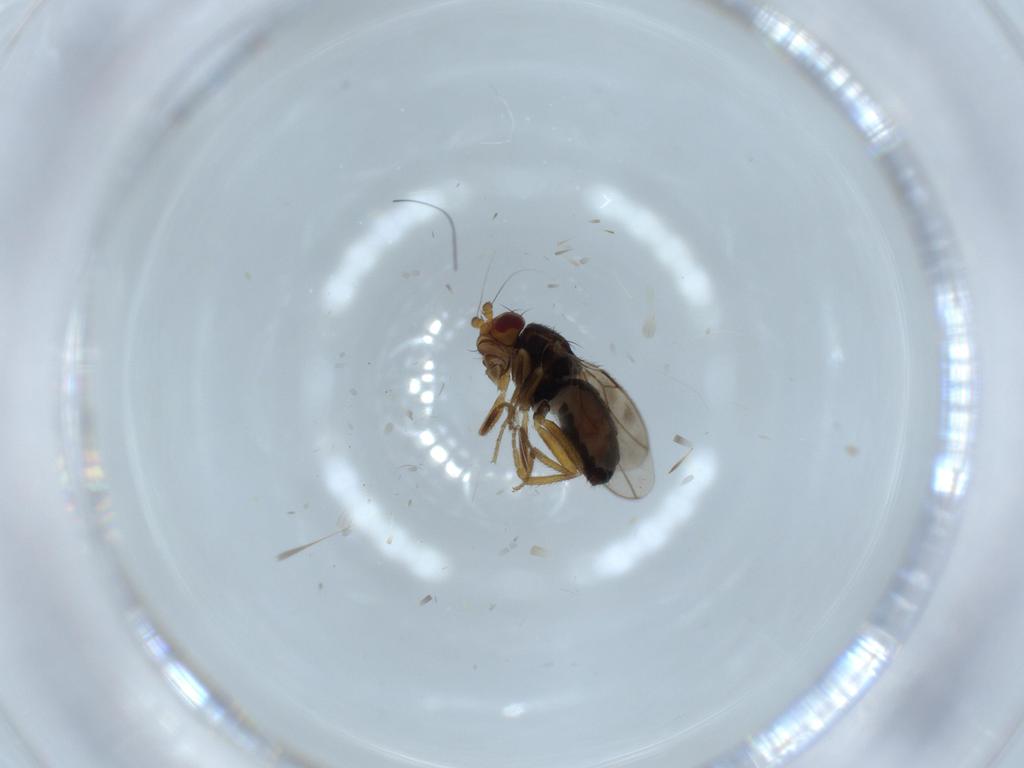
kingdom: Animalia
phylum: Arthropoda
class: Insecta
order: Diptera
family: Sphaeroceridae
